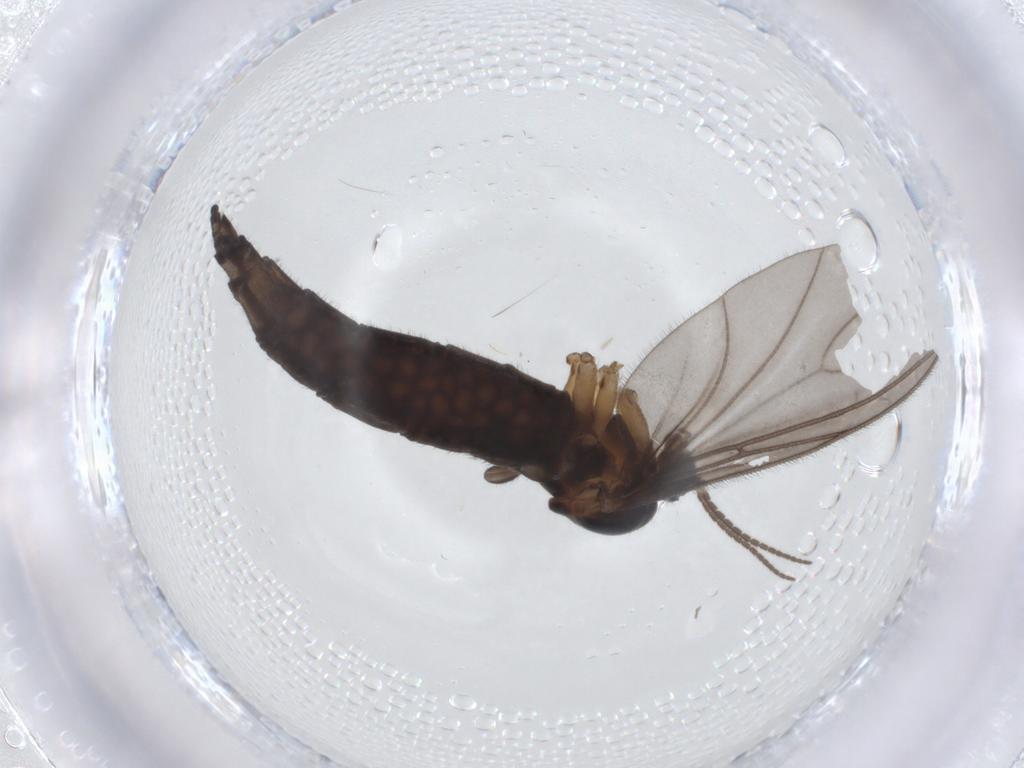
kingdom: Animalia
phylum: Arthropoda
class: Insecta
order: Diptera
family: Sciaridae
